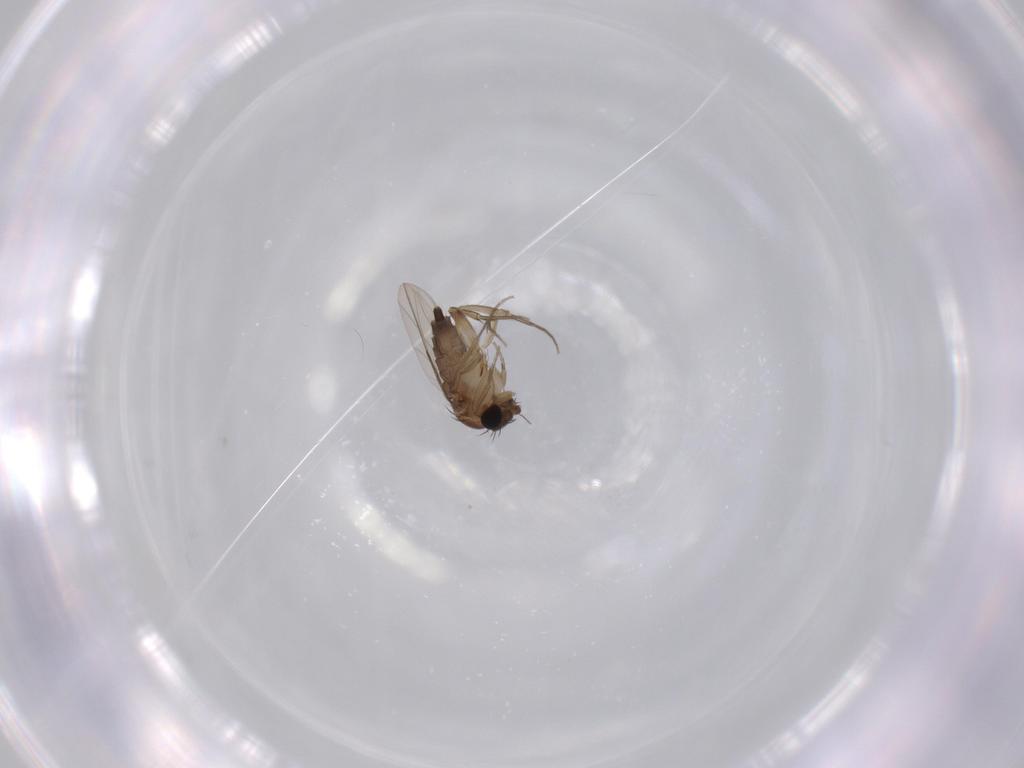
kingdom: Animalia
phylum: Arthropoda
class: Insecta
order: Diptera
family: Phoridae
